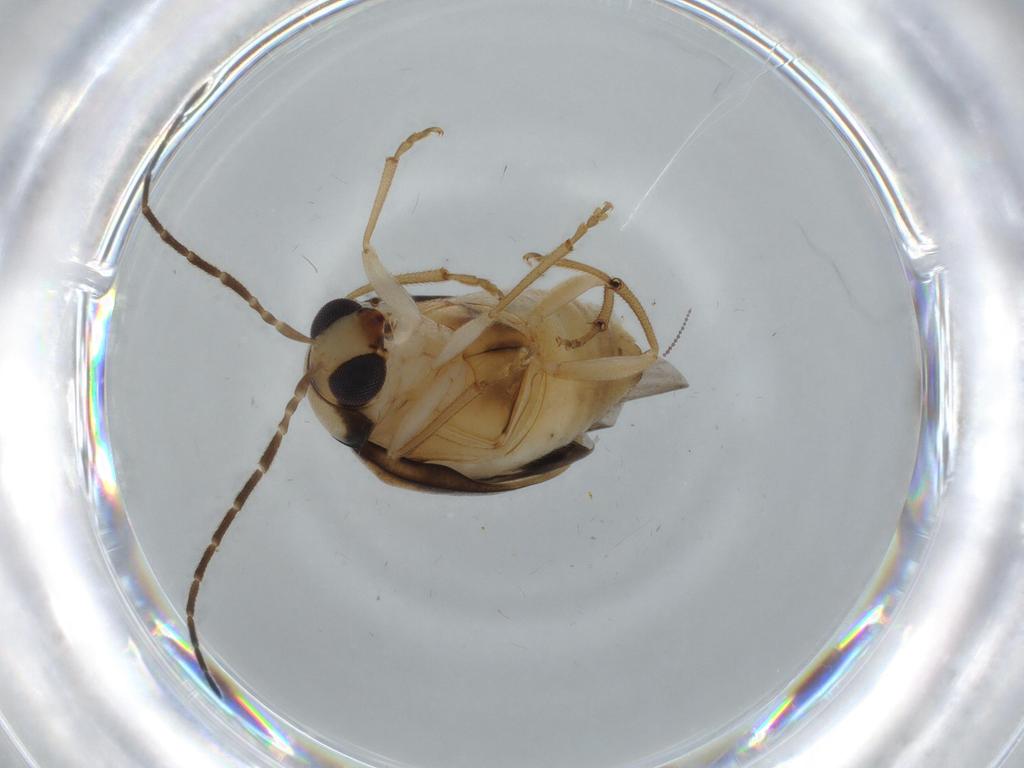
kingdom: Animalia
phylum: Arthropoda
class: Insecta
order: Coleoptera
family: Chrysomelidae
